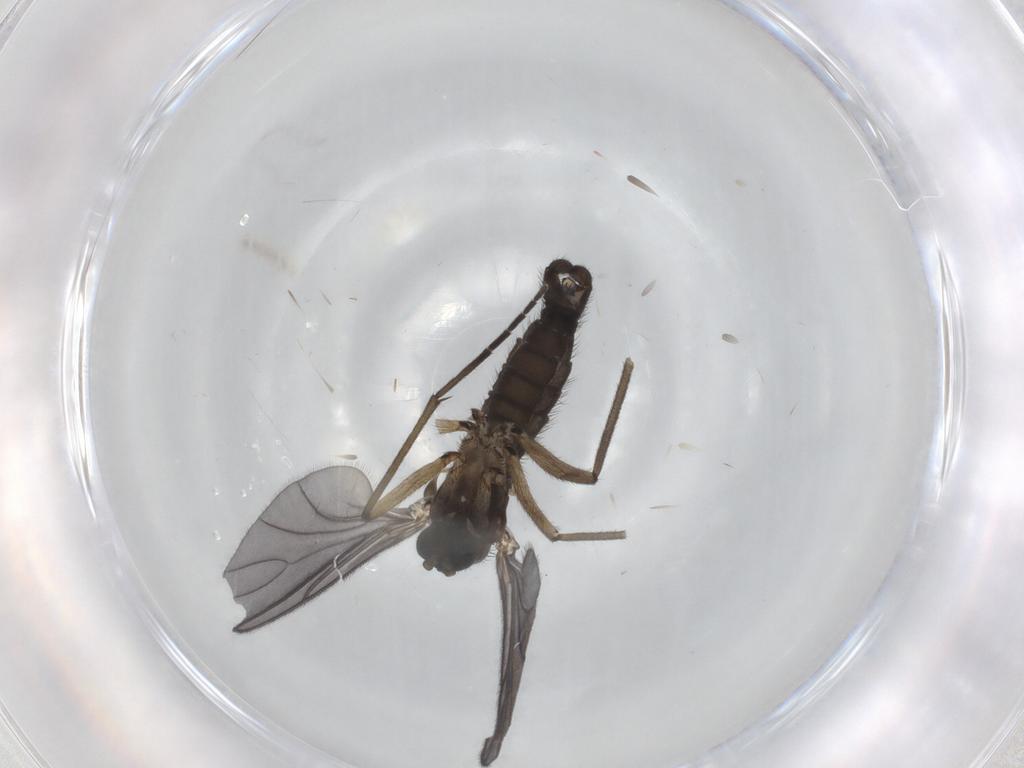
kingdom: Animalia
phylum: Arthropoda
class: Insecta
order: Diptera
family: Sciaridae
